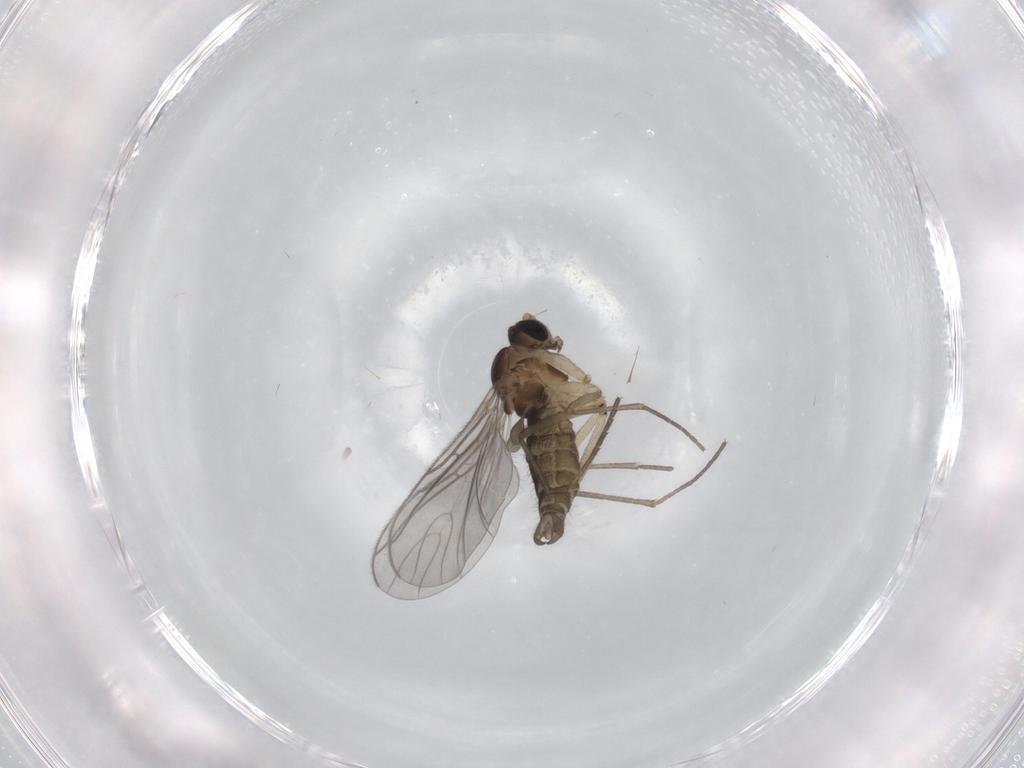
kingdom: Animalia
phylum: Arthropoda
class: Insecta
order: Diptera
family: Sciaridae
